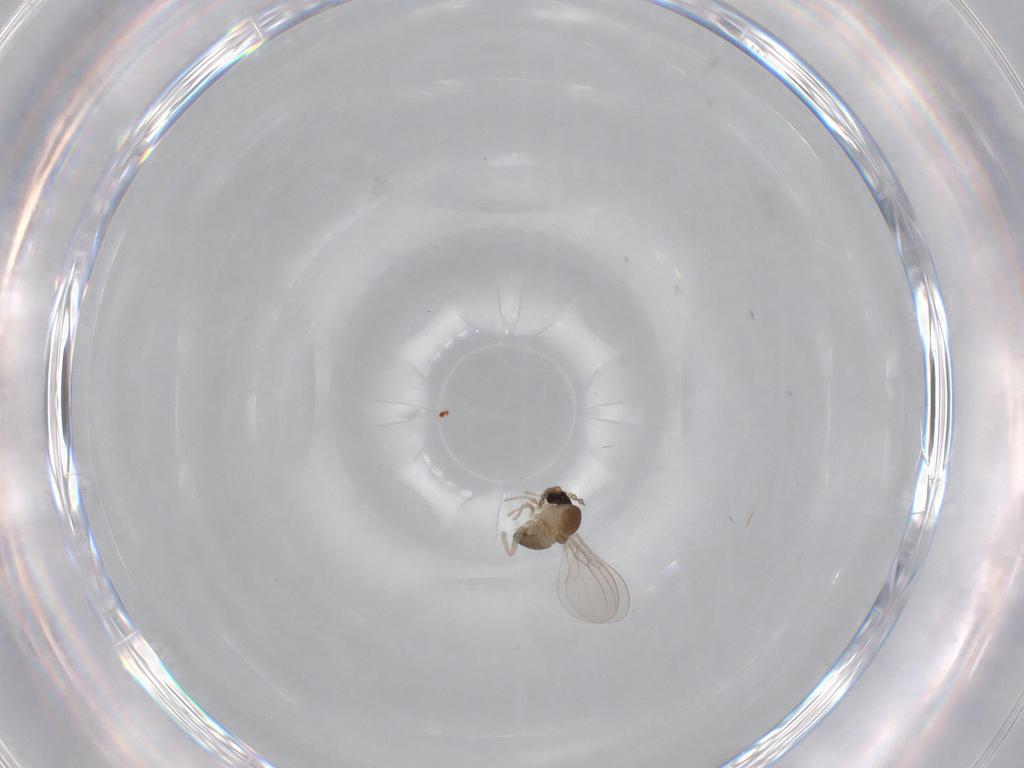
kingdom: Animalia
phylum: Arthropoda
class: Insecta
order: Diptera
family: Cecidomyiidae
